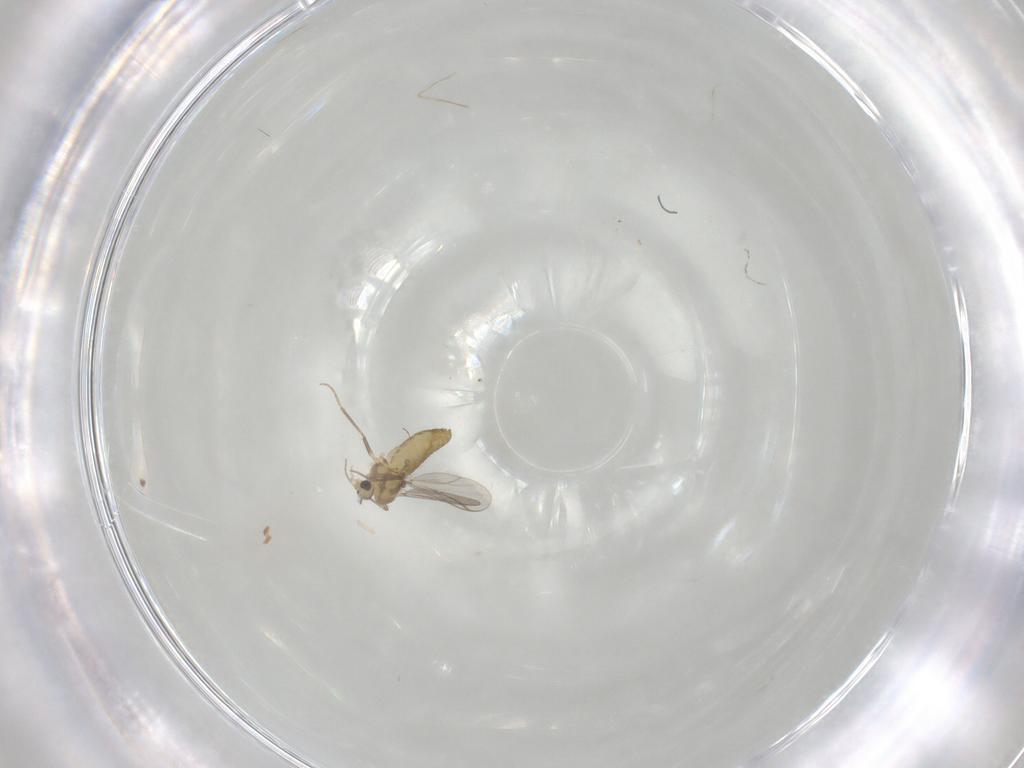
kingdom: Animalia
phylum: Arthropoda
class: Insecta
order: Diptera
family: Chironomidae
